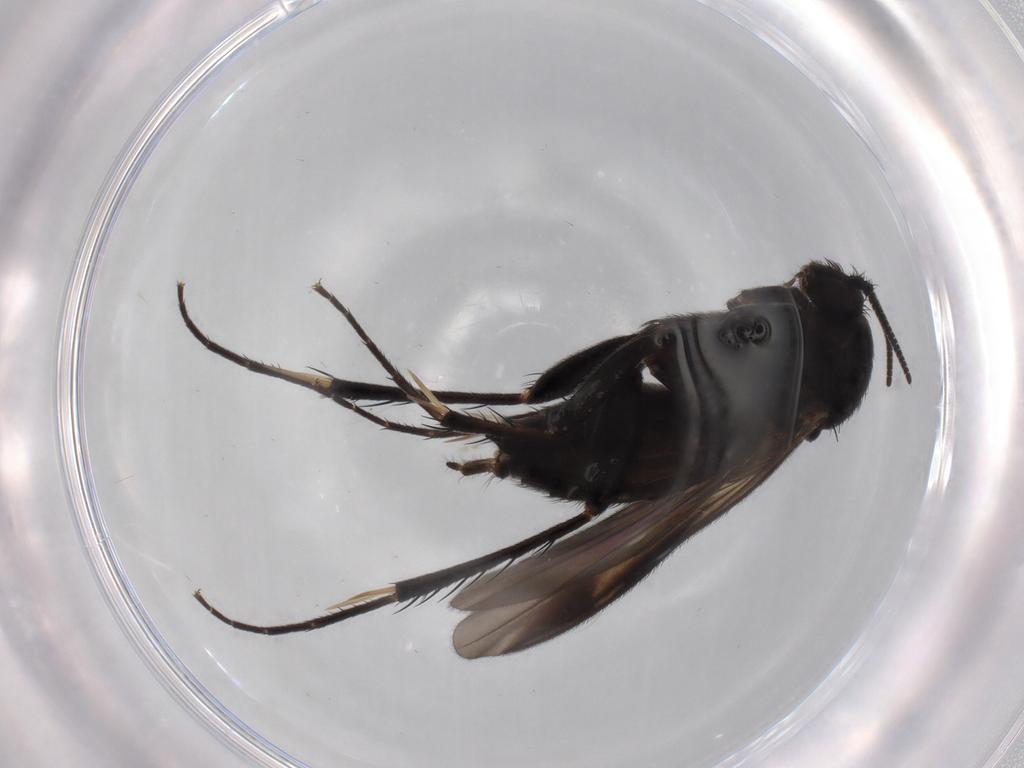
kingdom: Animalia
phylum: Arthropoda
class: Insecta
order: Diptera
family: Mycetophilidae
